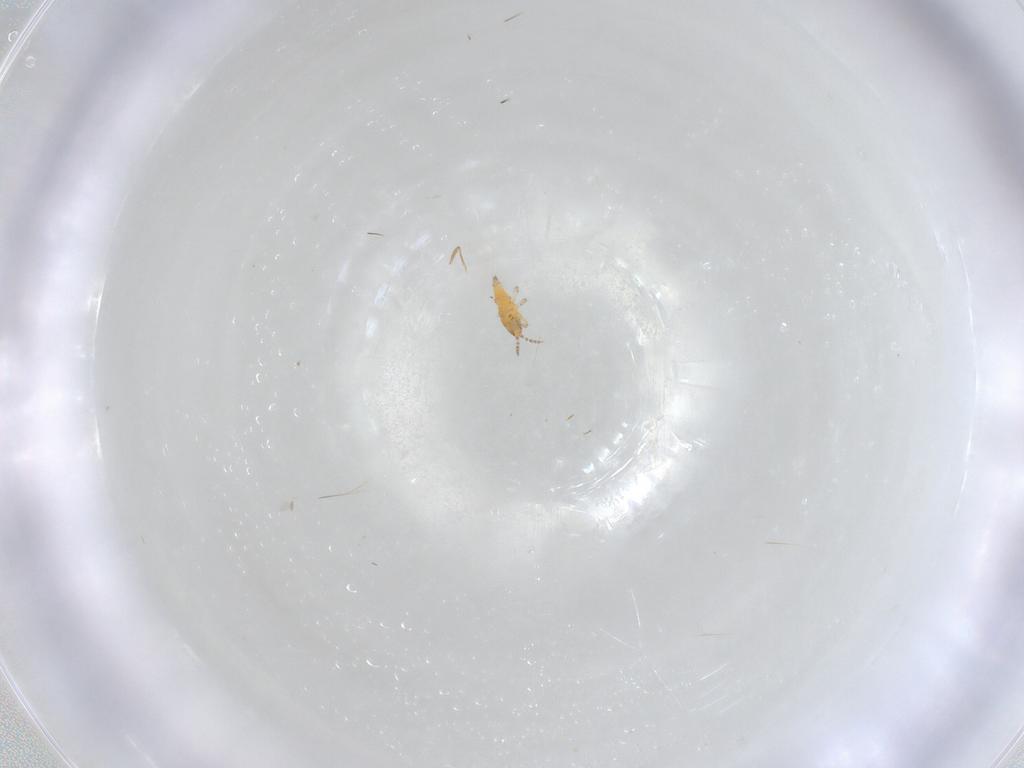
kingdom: Animalia
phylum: Arthropoda
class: Insecta
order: Thysanoptera
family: Phlaeothripidae
